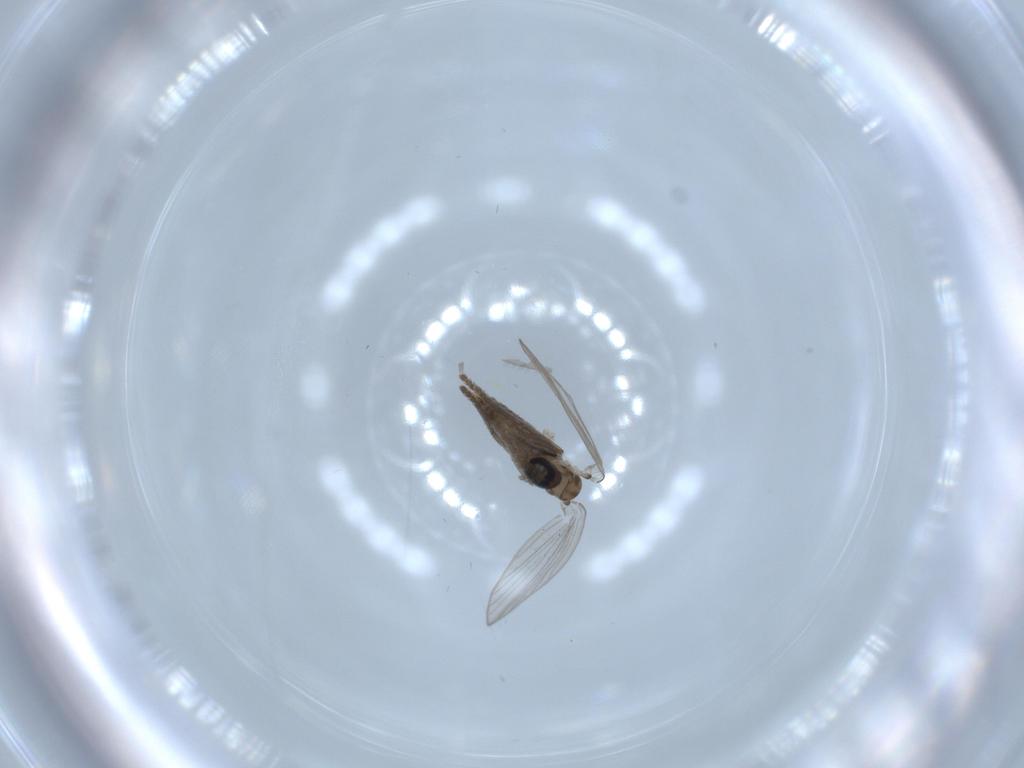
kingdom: Animalia
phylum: Arthropoda
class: Insecta
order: Diptera
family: Psychodidae
